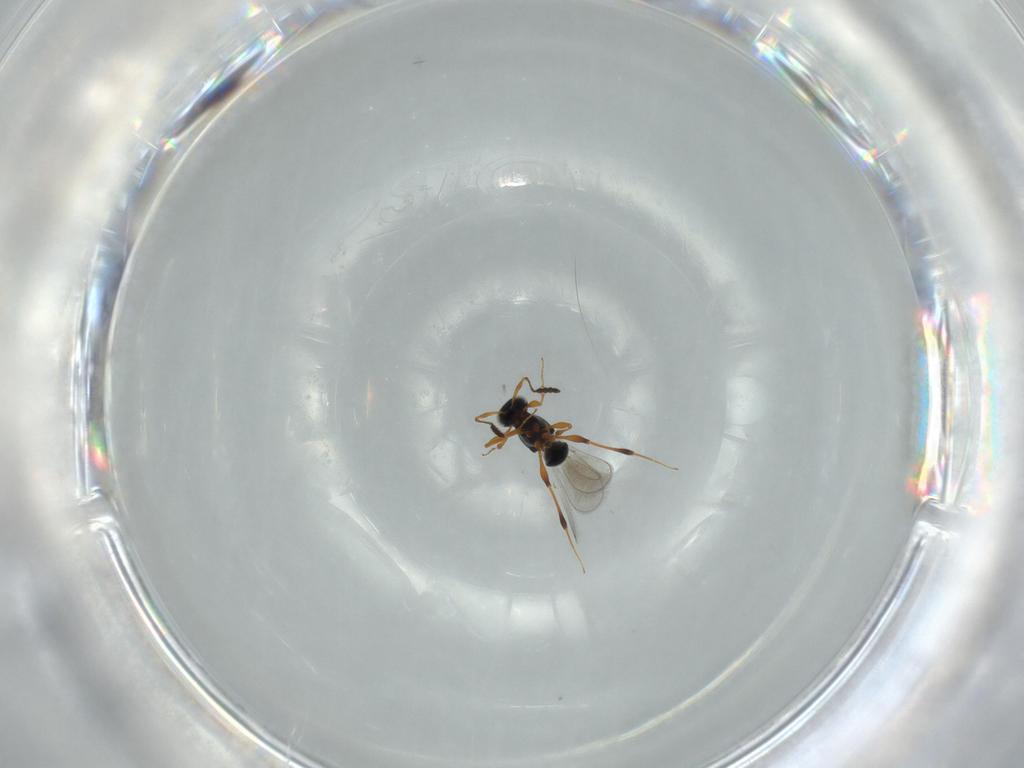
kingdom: Animalia
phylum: Arthropoda
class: Insecta
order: Hymenoptera
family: Platygastridae
